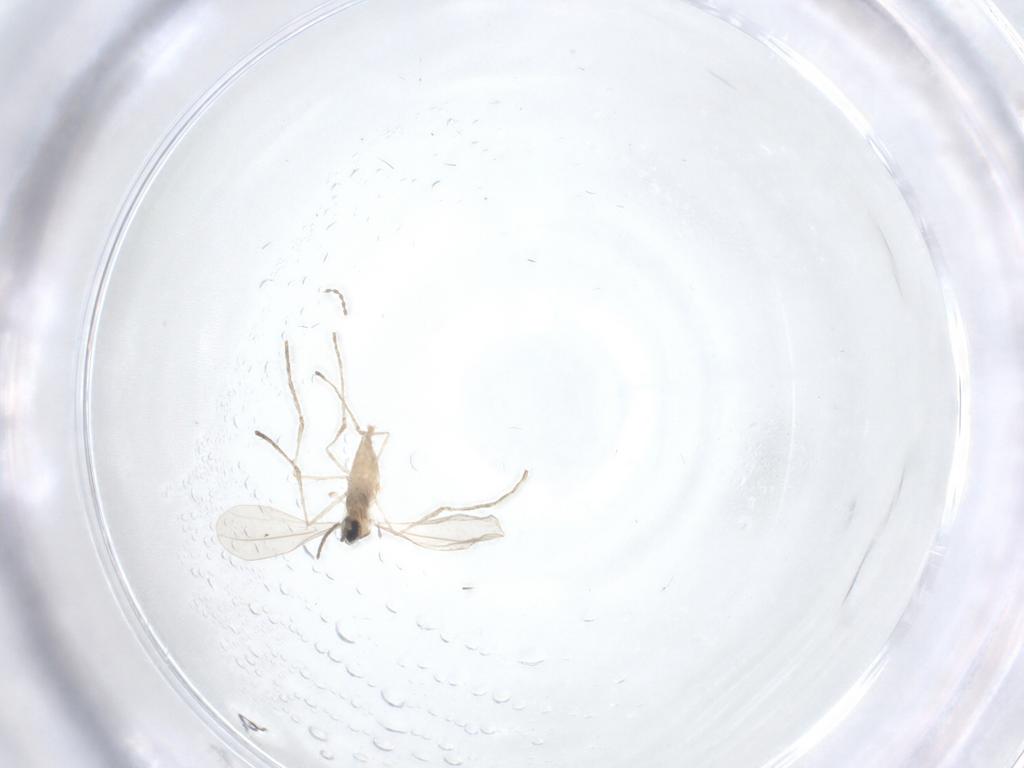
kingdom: Animalia
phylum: Arthropoda
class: Insecta
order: Diptera
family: Cecidomyiidae
